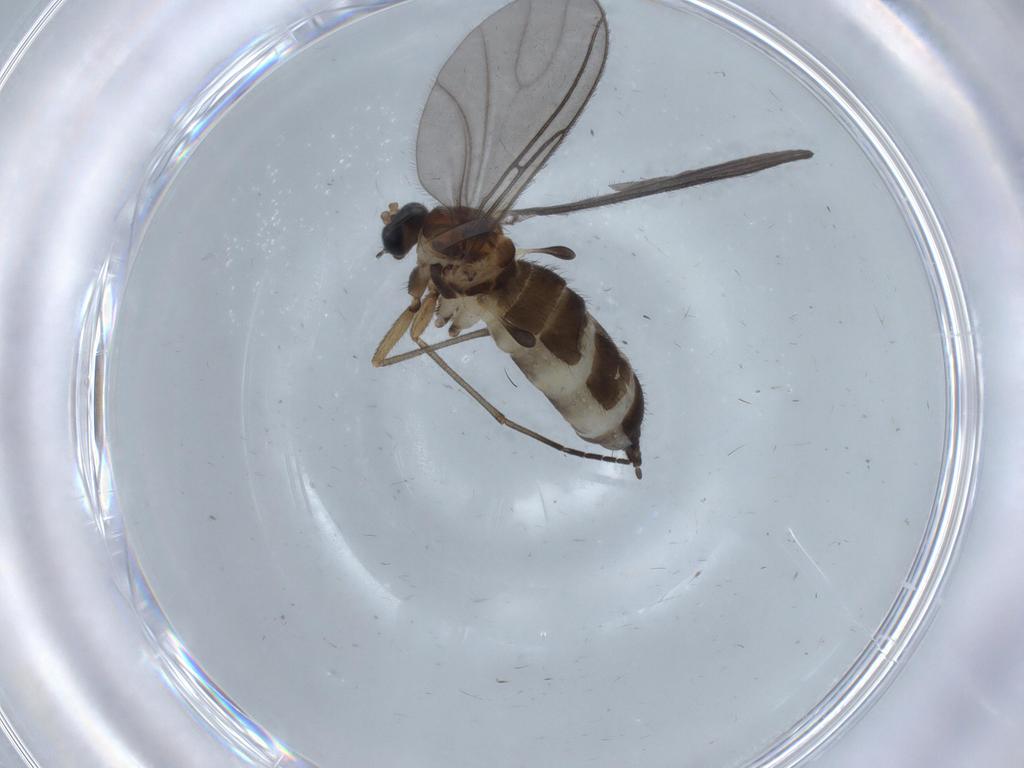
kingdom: Animalia
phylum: Arthropoda
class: Insecta
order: Diptera
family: Sciaridae
